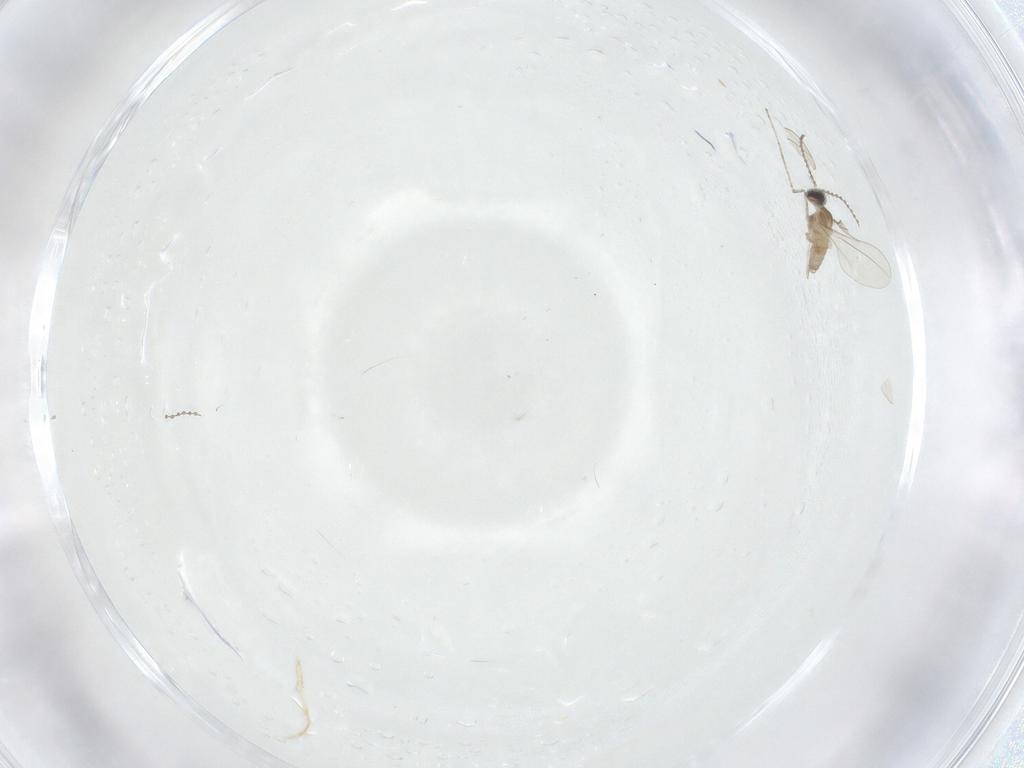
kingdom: Animalia
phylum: Arthropoda
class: Insecta
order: Diptera
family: Cecidomyiidae
